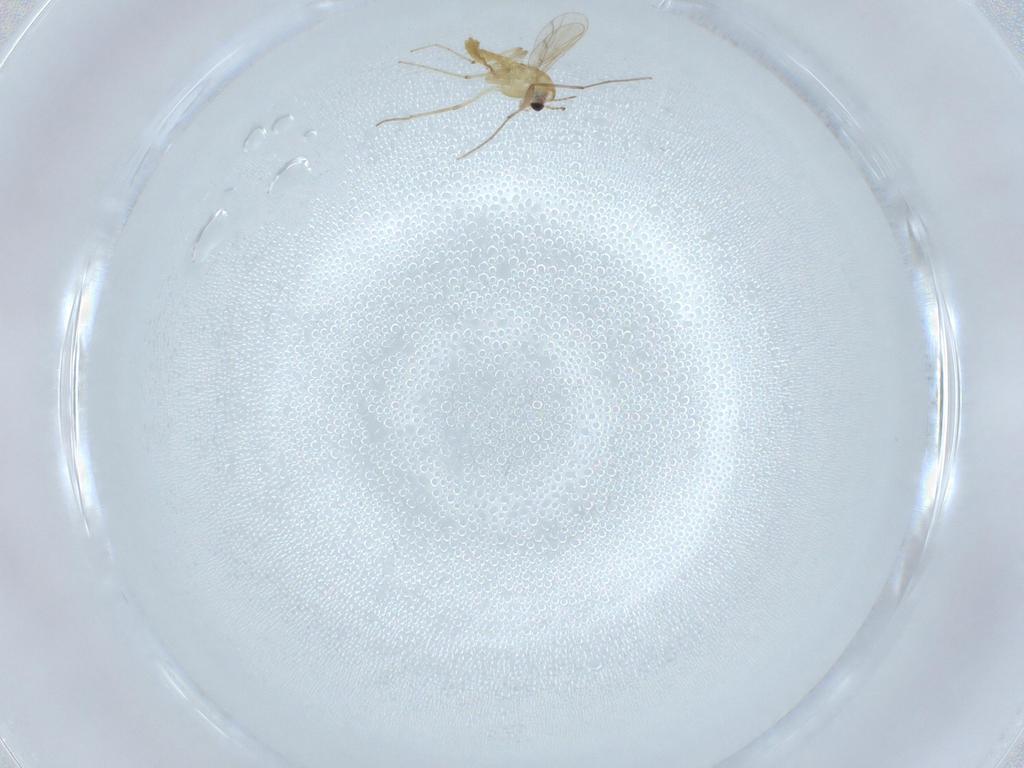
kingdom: Animalia
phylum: Arthropoda
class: Insecta
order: Diptera
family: Chironomidae
